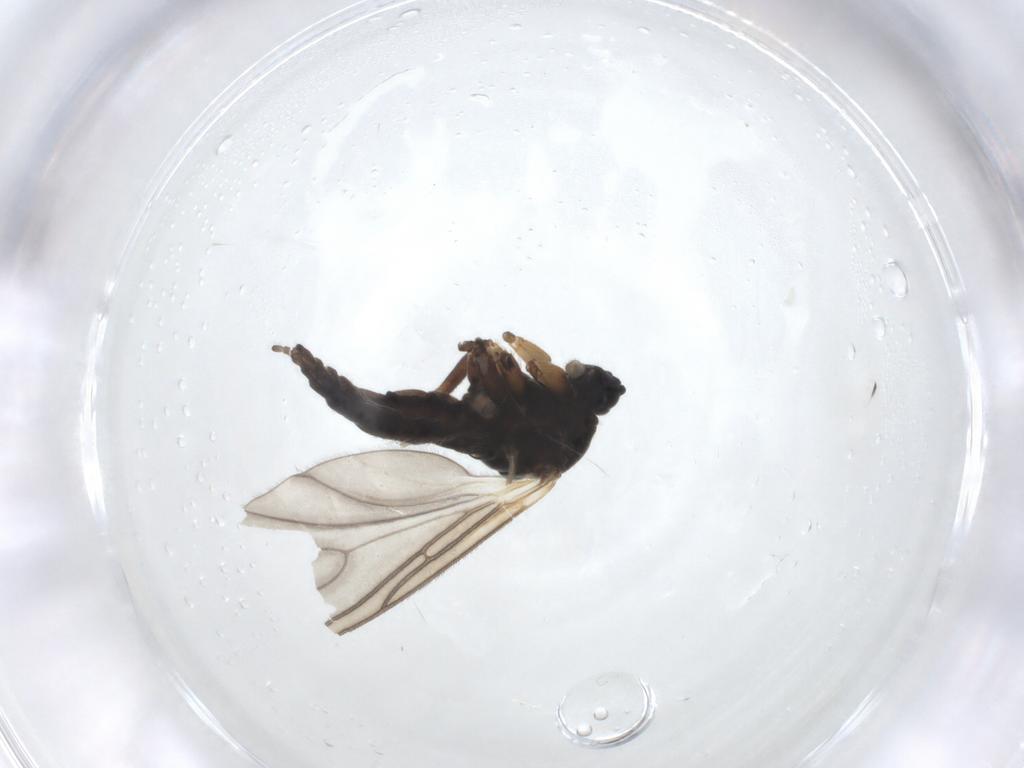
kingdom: Animalia
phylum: Arthropoda
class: Insecta
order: Diptera
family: Sciaridae
